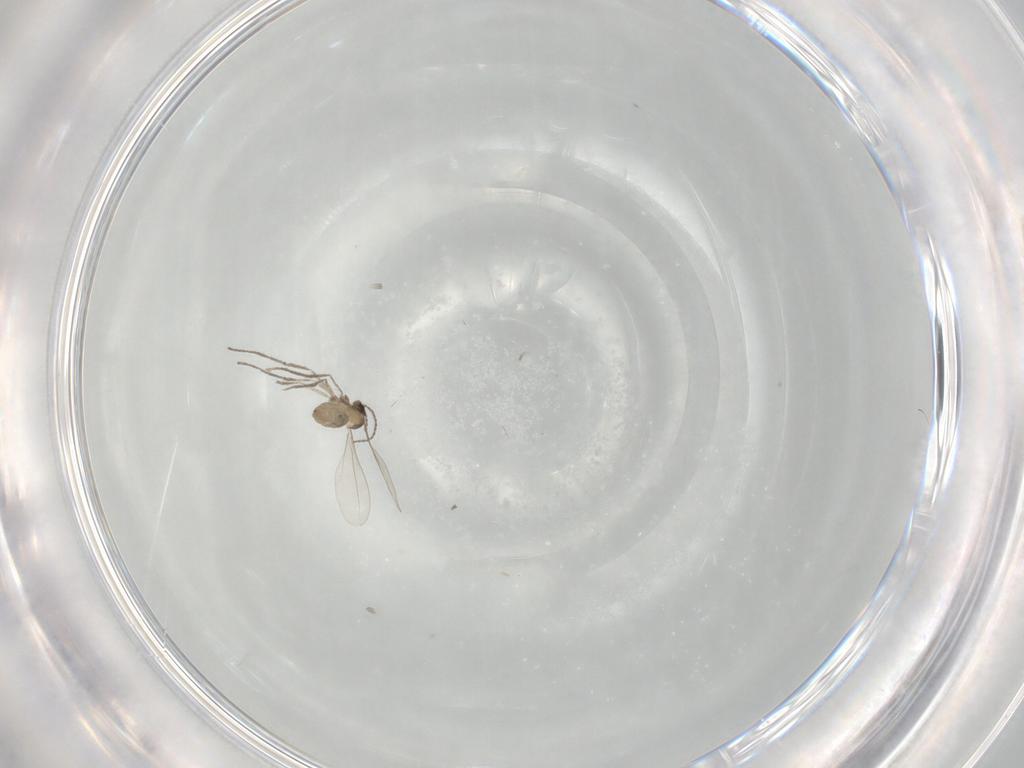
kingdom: Animalia
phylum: Arthropoda
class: Insecta
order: Diptera
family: Cecidomyiidae
